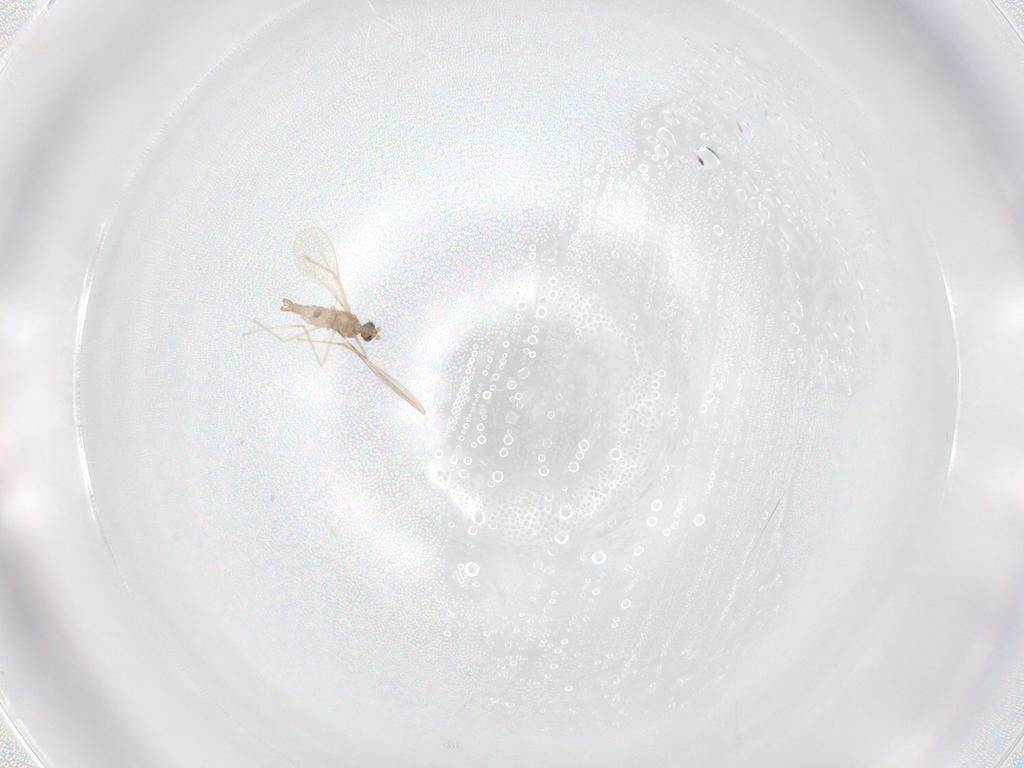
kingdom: Animalia
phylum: Arthropoda
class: Insecta
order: Diptera
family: Cecidomyiidae
